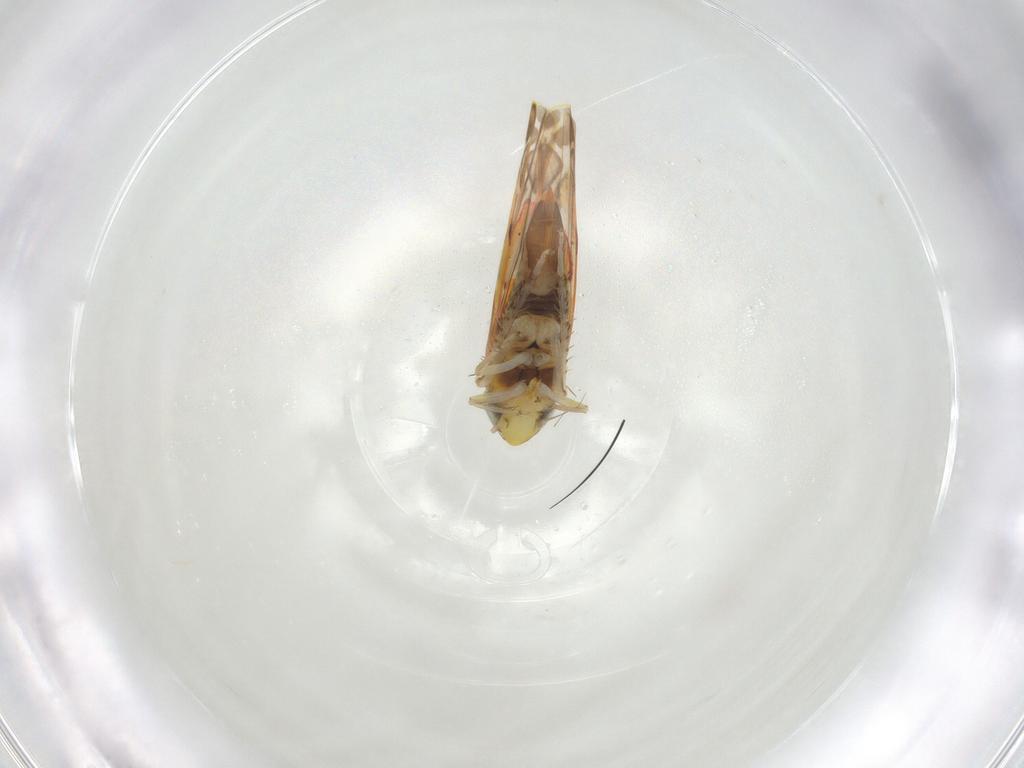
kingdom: Animalia
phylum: Arthropoda
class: Insecta
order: Hemiptera
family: Cicadellidae
